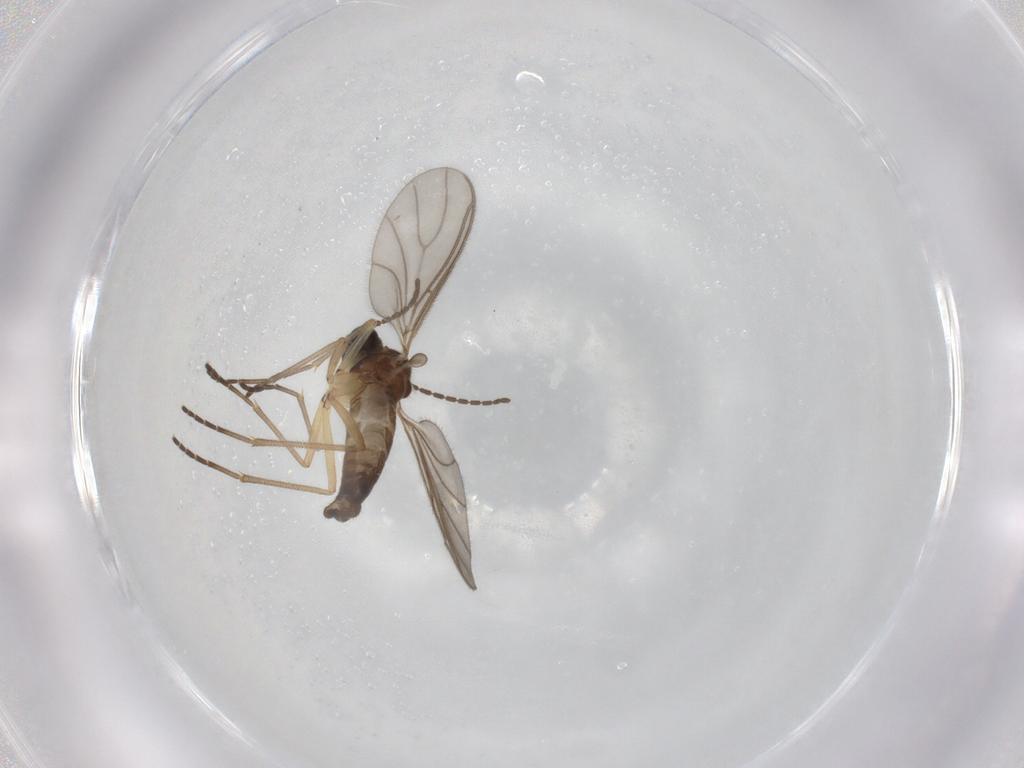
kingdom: Animalia
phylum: Arthropoda
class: Insecta
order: Diptera
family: Sciaridae
